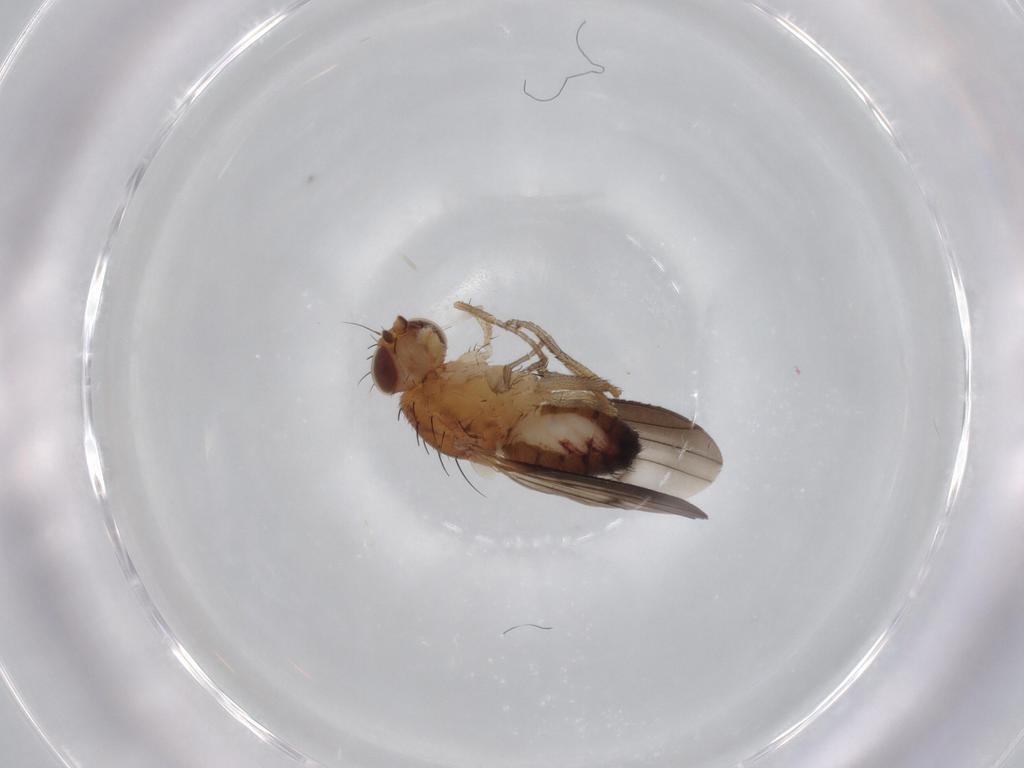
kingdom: Animalia
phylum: Arthropoda
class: Insecta
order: Diptera
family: Heleomyzidae
